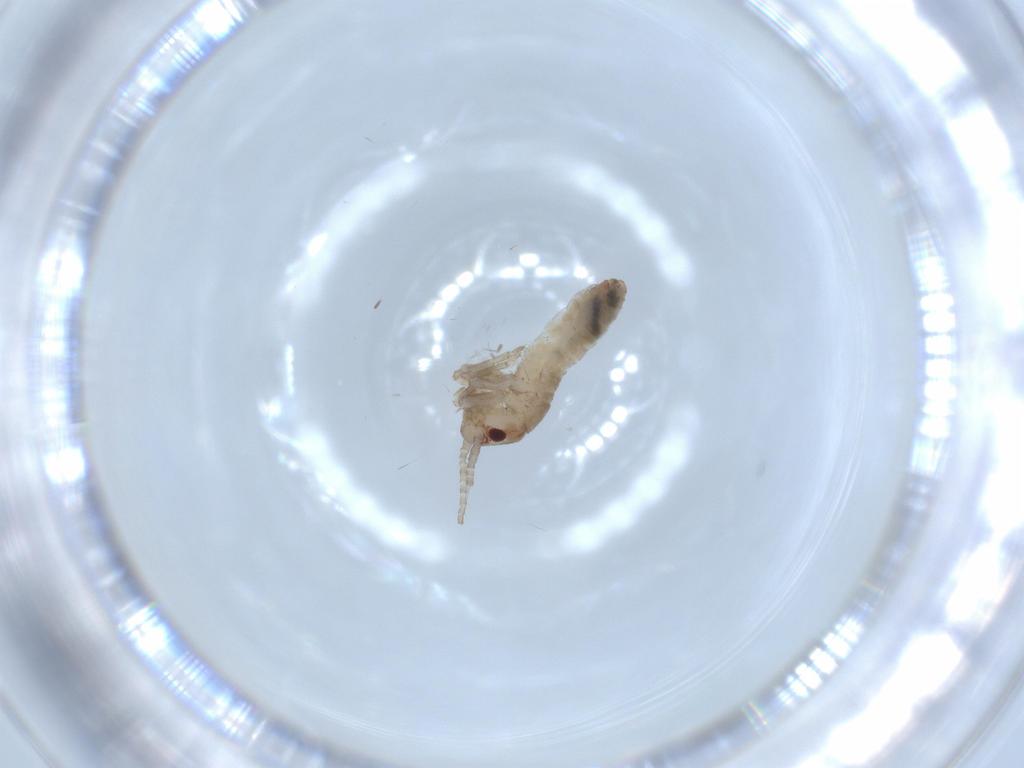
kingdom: Animalia
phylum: Arthropoda
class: Insecta
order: Orthoptera
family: Mogoplistidae
